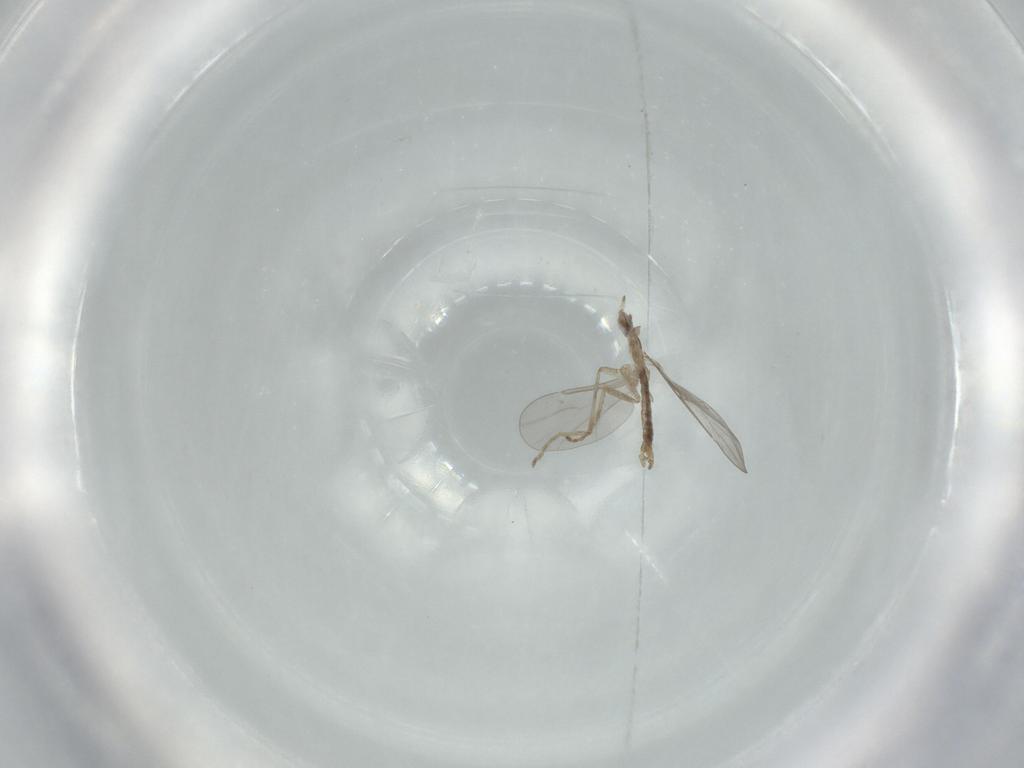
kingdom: Animalia
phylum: Arthropoda
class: Insecta
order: Diptera
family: Cecidomyiidae
